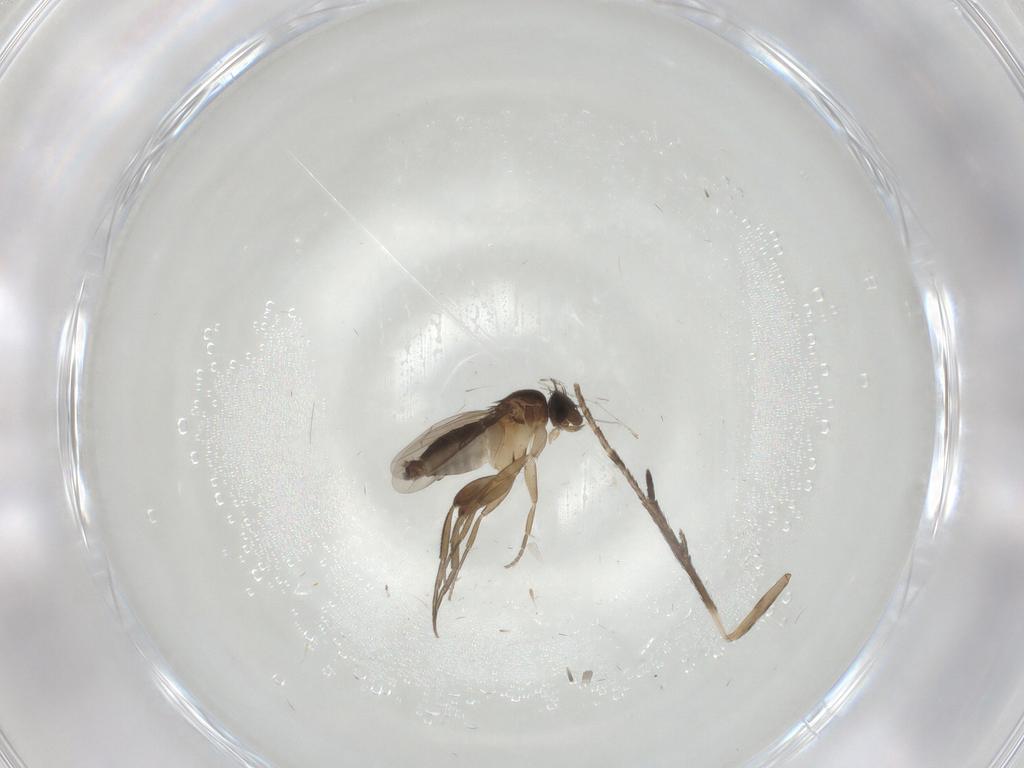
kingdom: Animalia
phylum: Arthropoda
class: Insecta
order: Diptera
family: Cecidomyiidae
